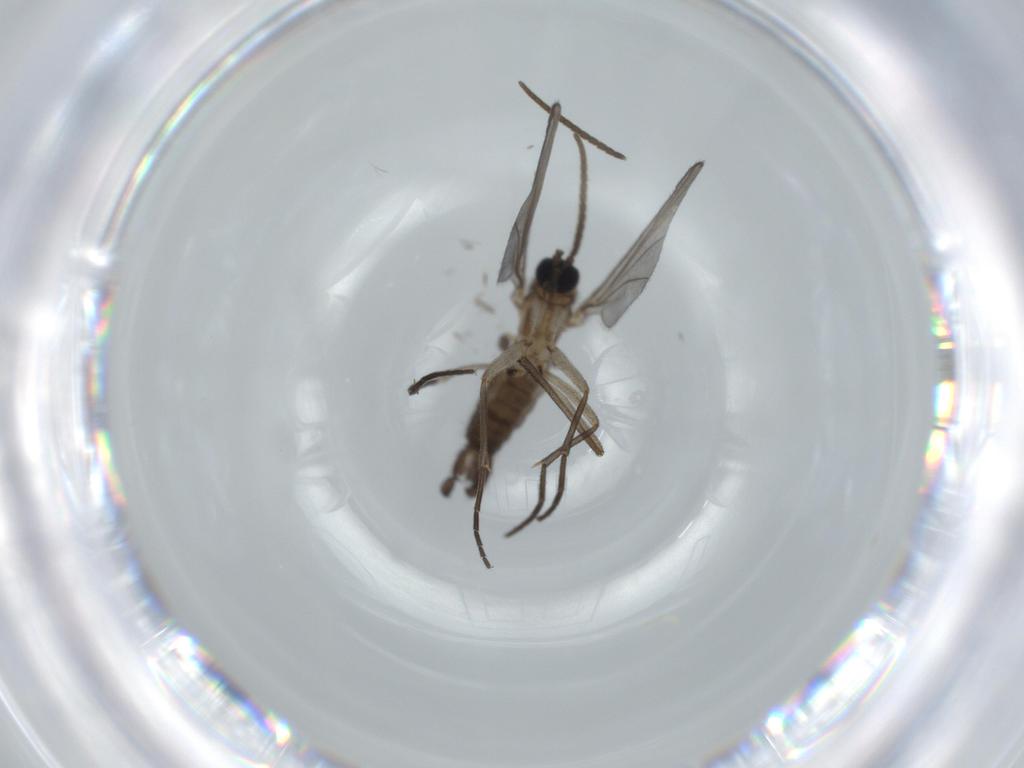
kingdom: Animalia
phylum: Arthropoda
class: Insecta
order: Diptera
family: Sciaridae
